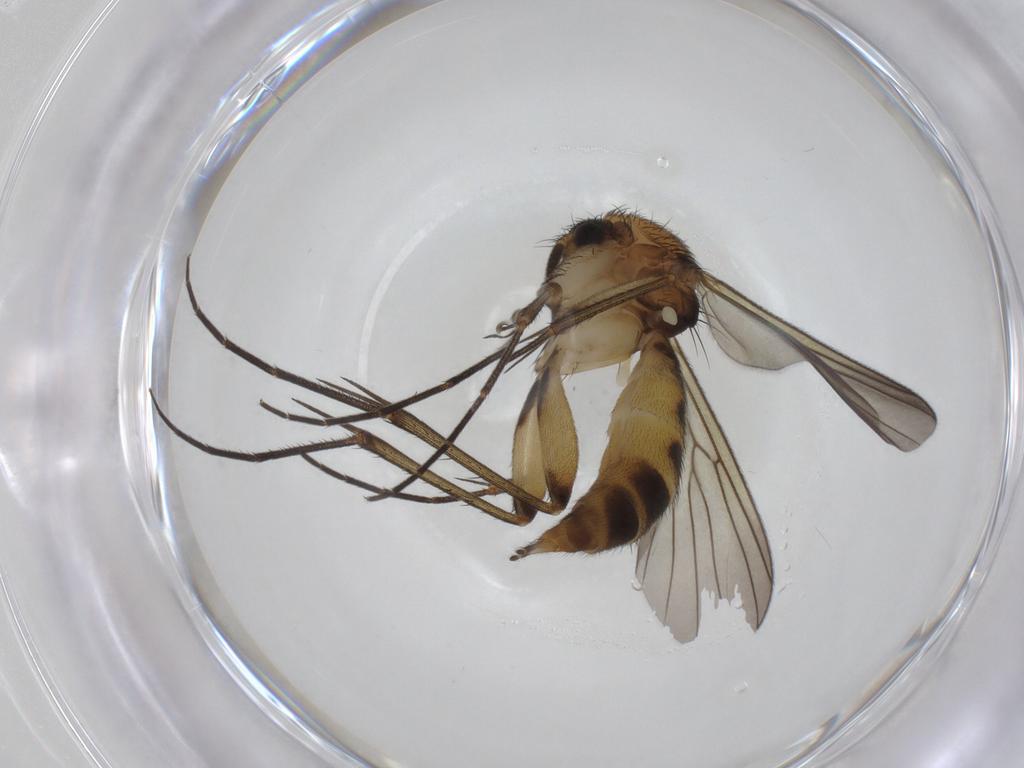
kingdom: Animalia
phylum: Arthropoda
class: Insecta
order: Diptera
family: Mycetophilidae
